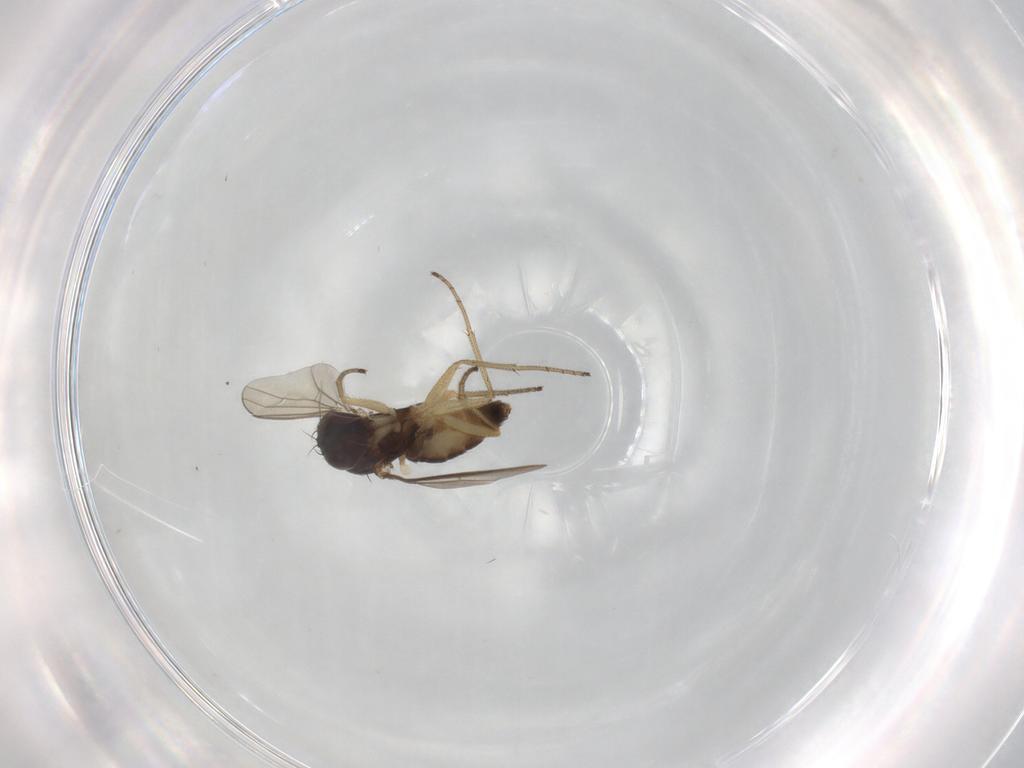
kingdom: Animalia
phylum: Arthropoda
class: Insecta
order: Diptera
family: Dolichopodidae
